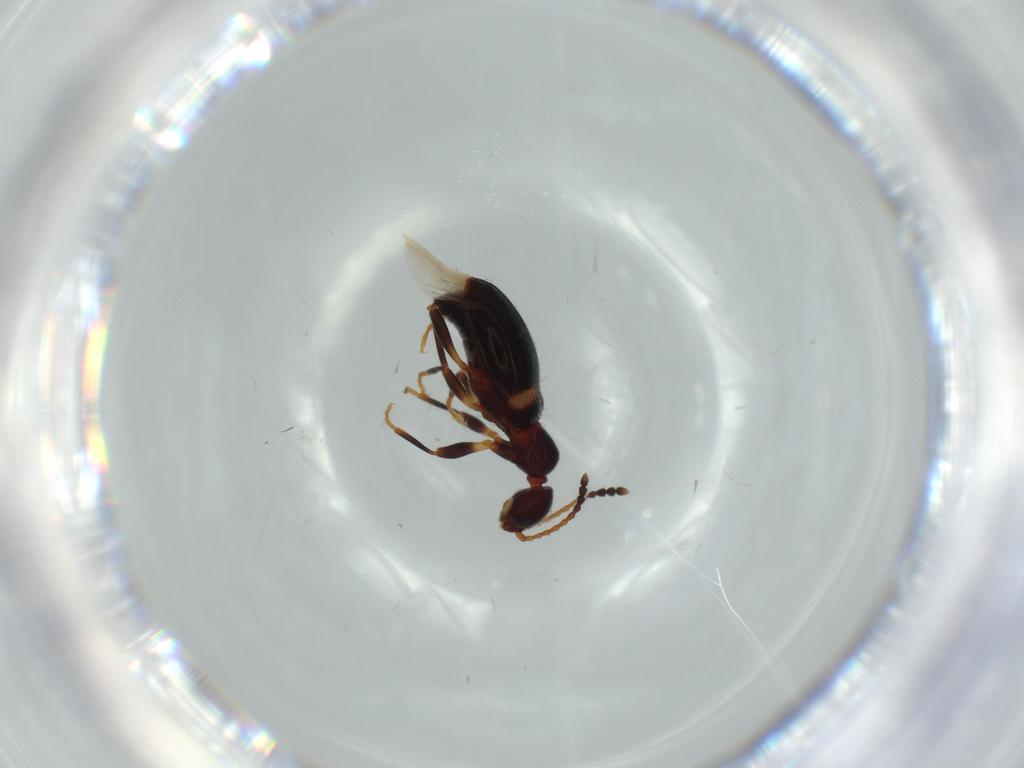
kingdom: Animalia
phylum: Arthropoda
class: Insecta
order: Coleoptera
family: Anthicidae
